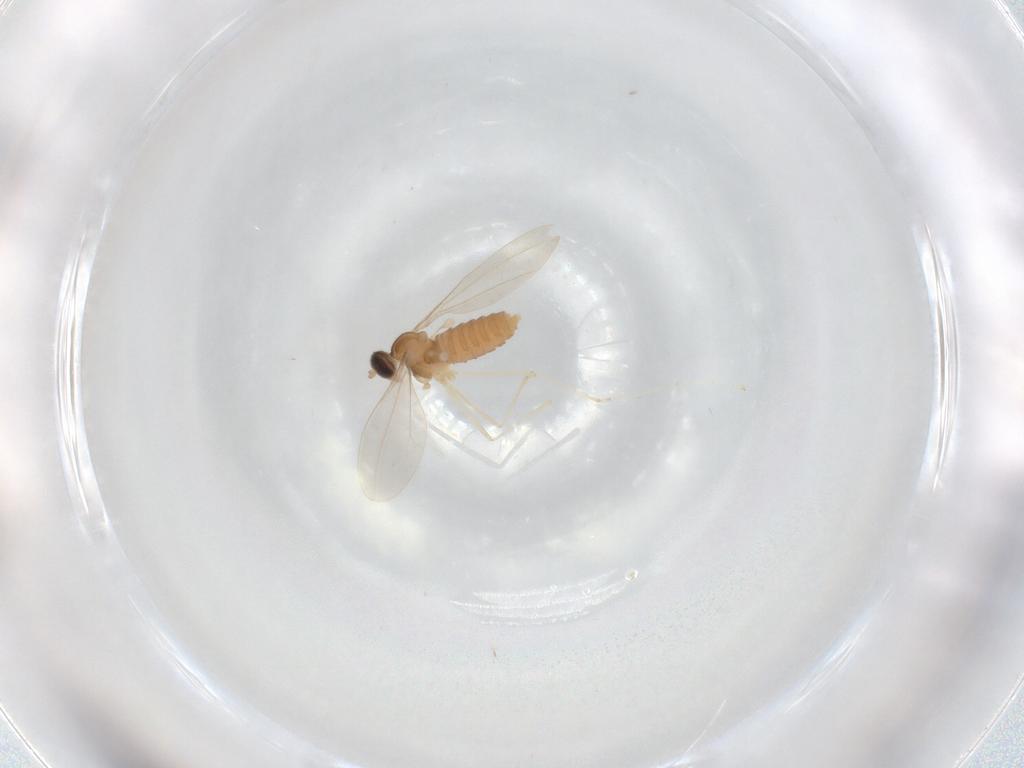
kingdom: Animalia
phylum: Arthropoda
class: Insecta
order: Diptera
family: Cecidomyiidae
